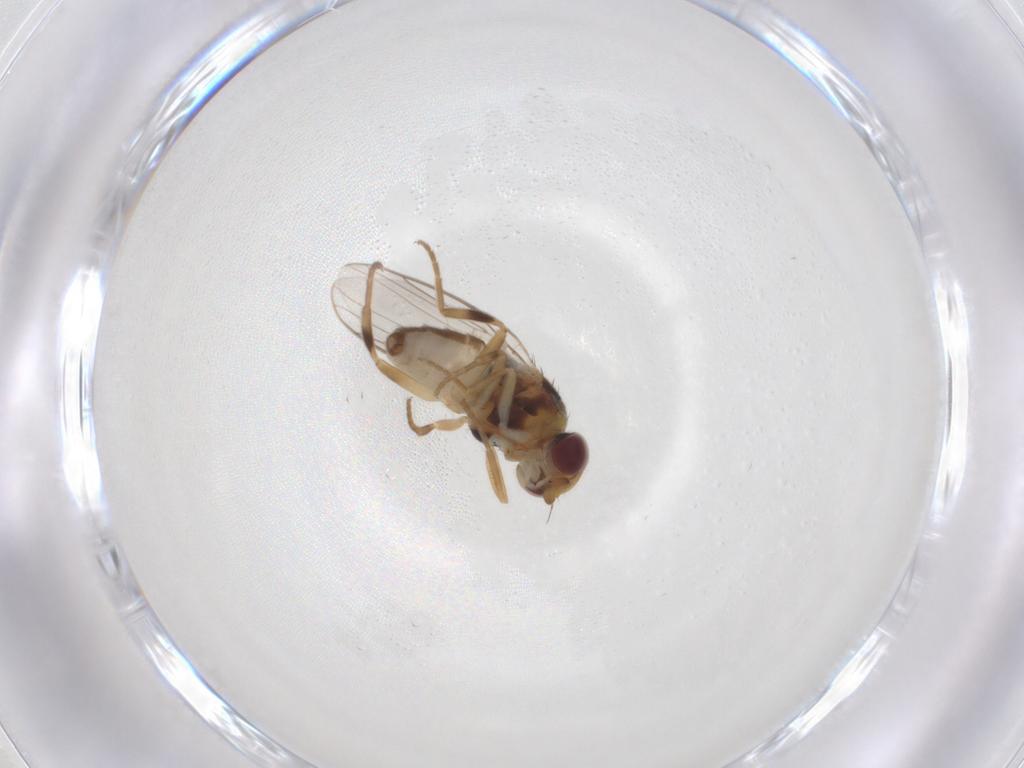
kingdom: Animalia
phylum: Arthropoda
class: Insecta
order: Diptera
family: Chloropidae
